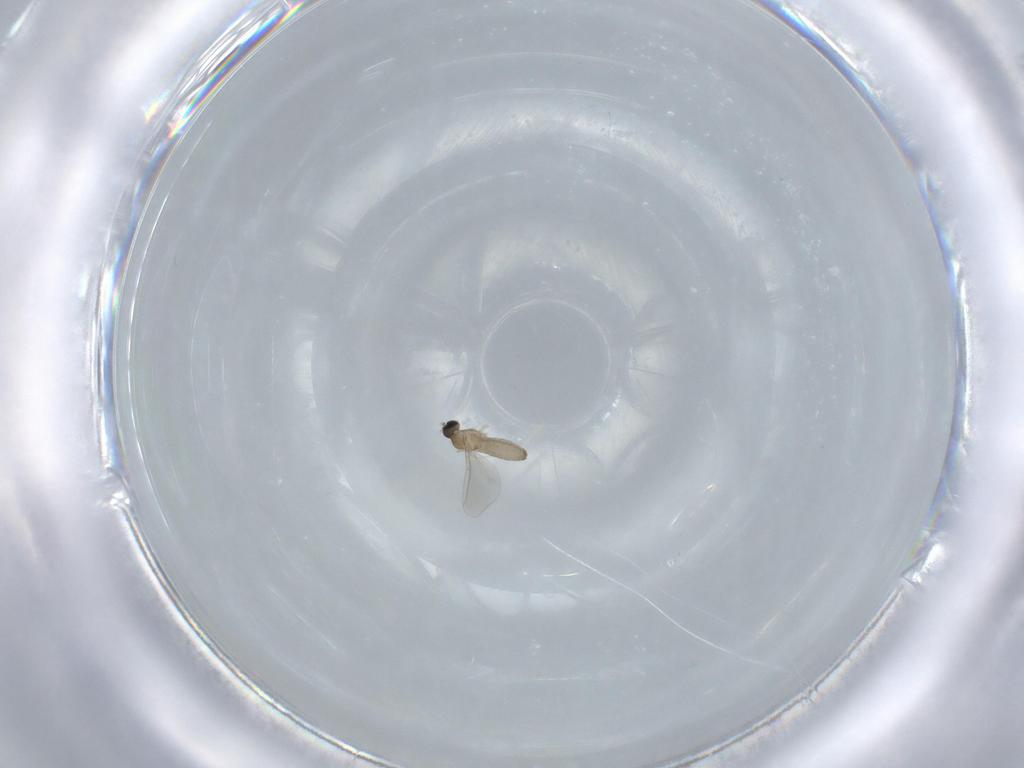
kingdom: Animalia
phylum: Arthropoda
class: Insecta
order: Diptera
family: Cecidomyiidae
